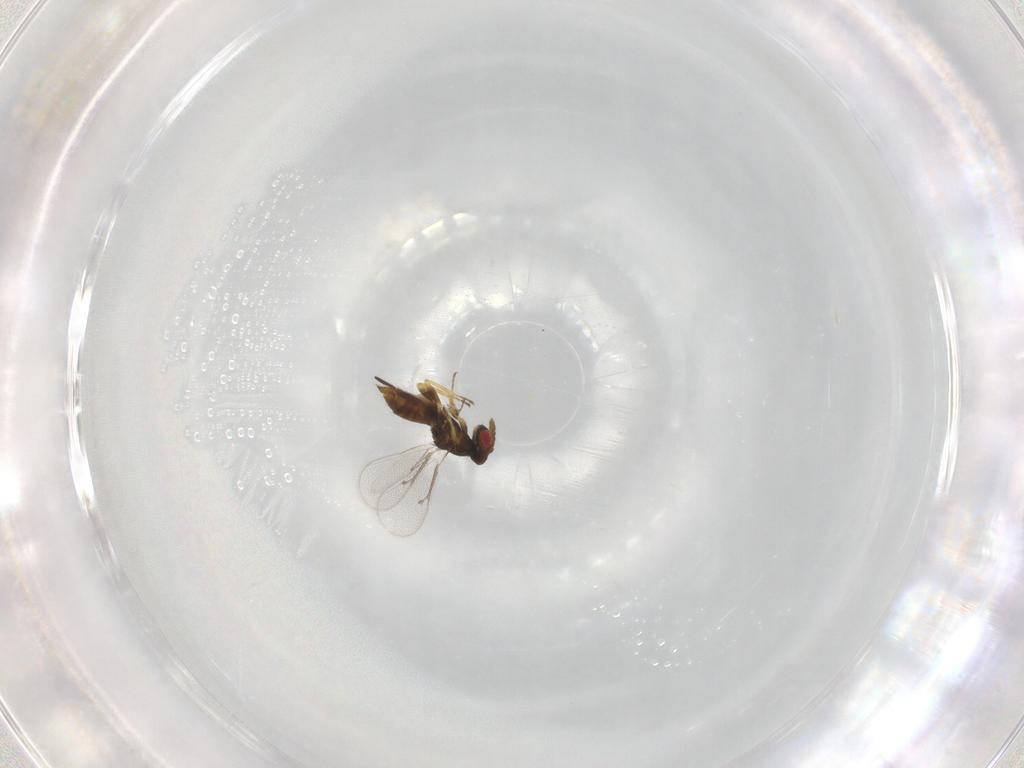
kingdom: Animalia
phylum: Arthropoda
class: Insecta
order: Hymenoptera
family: Eulophidae
